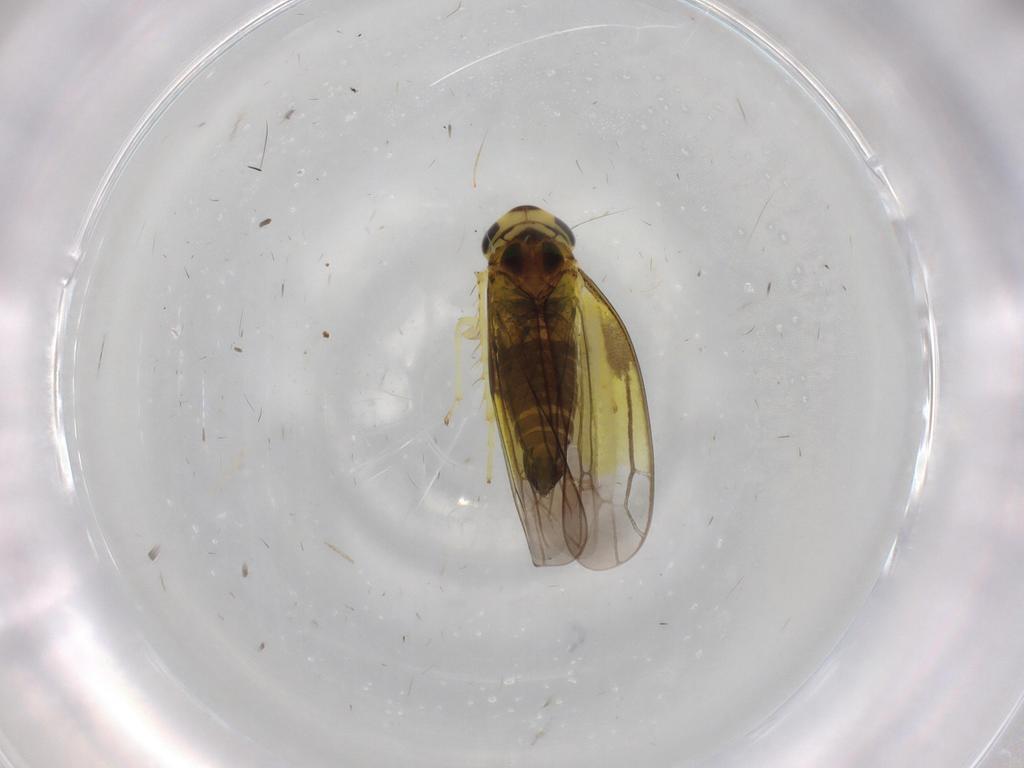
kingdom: Animalia
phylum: Arthropoda
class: Insecta
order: Hemiptera
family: Cicadellidae
